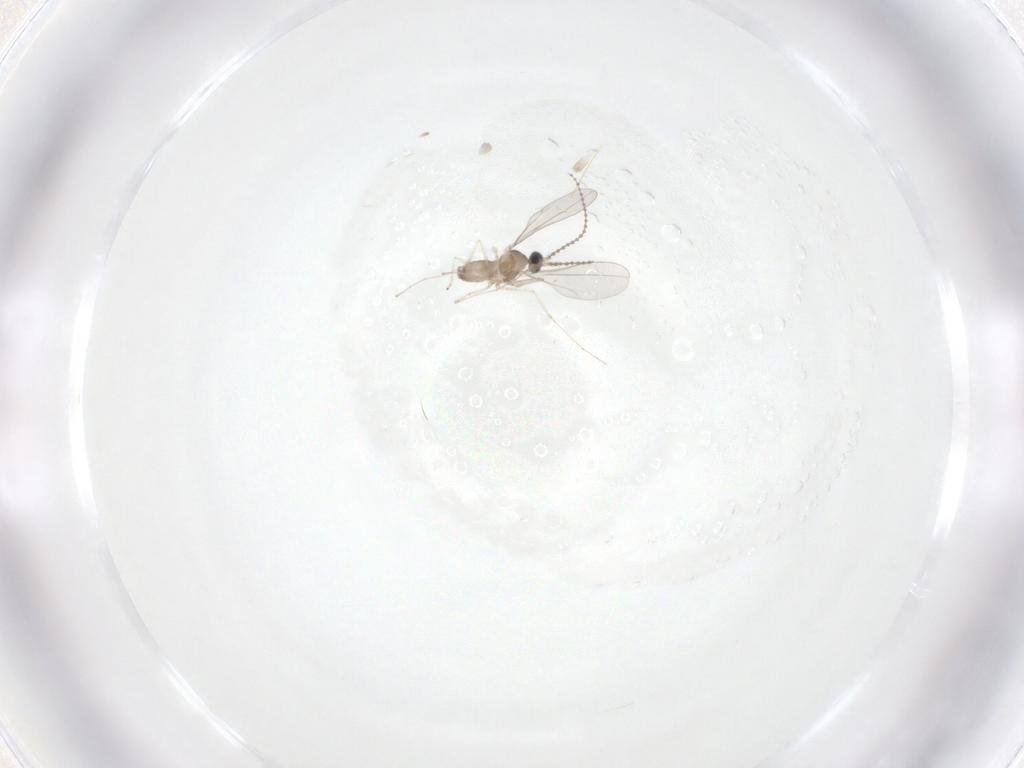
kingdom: Animalia
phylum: Arthropoda
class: Insecta
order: Diptera
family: Cecidomyiidae
